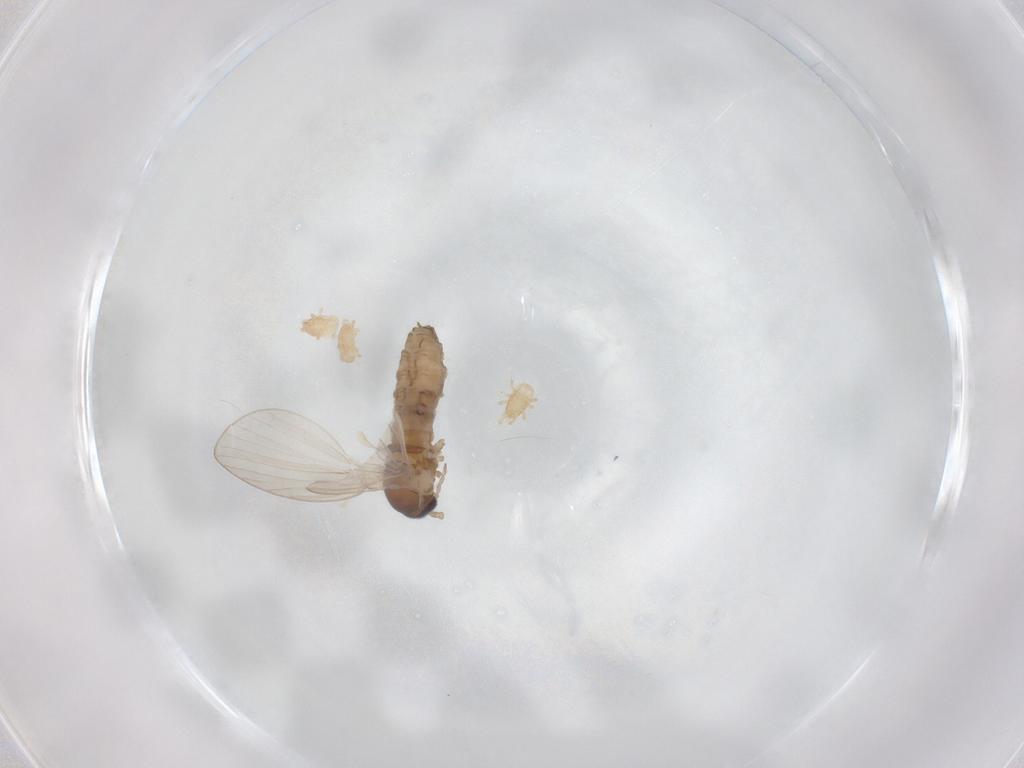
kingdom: Animalia
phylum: Arthropoda
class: Insecta
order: Diptera
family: Psychodidae
